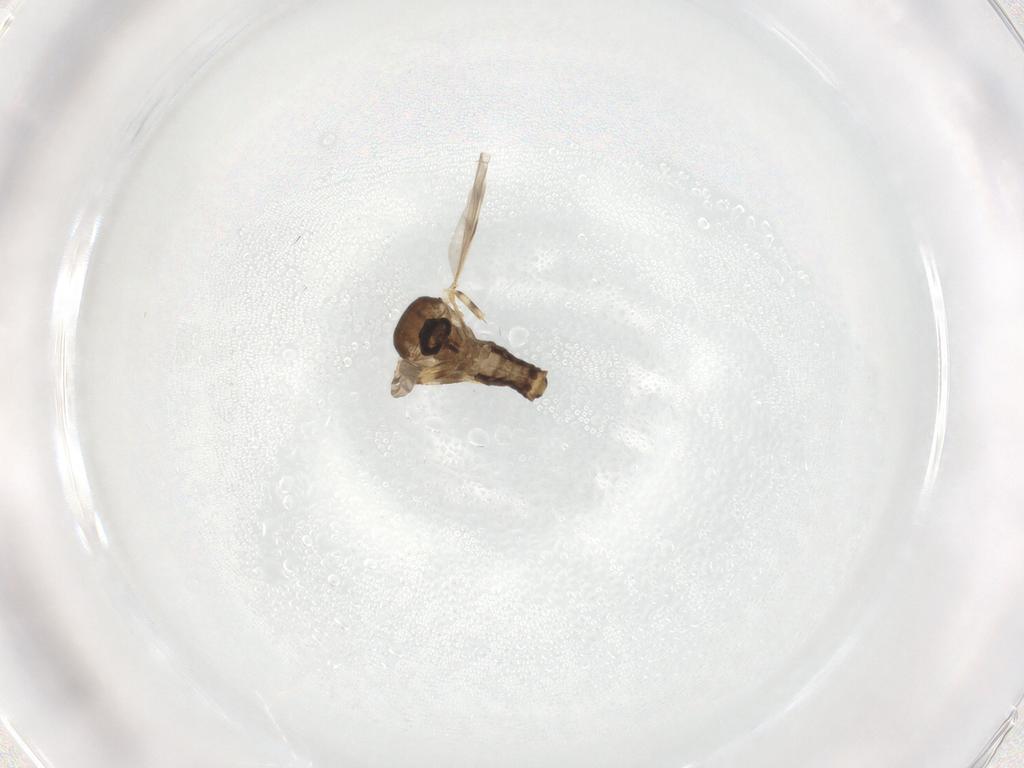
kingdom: Animalia
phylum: Arthropoda
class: Insecta
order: Diptera
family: Ceratopogonidae
